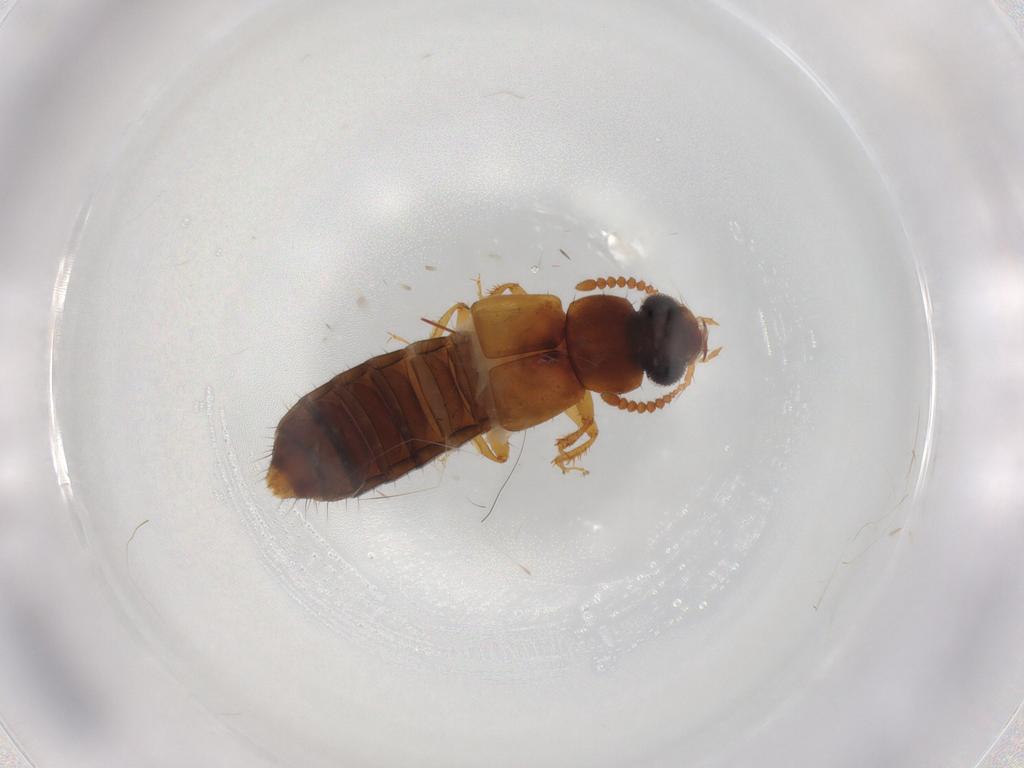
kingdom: Animalia
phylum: Arthropoda
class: Insecta
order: Coleoptera
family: Staphylinidae
